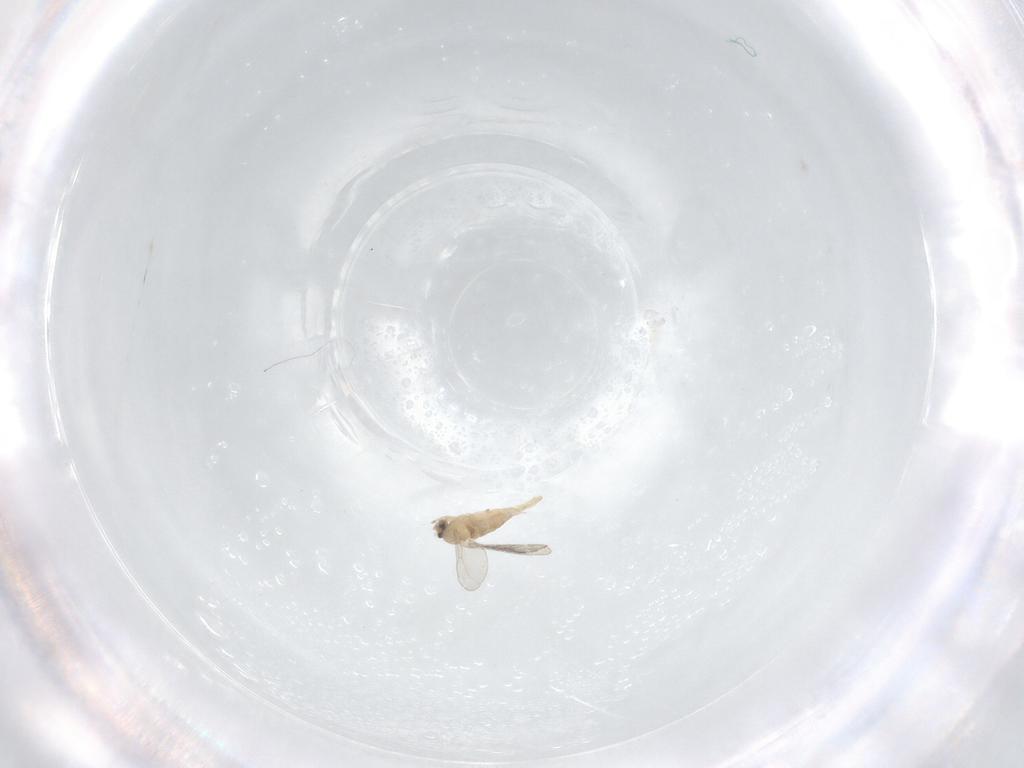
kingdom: Animalia
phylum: Arthropoda
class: Insecta
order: Diptera
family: Cecidomyiidae
